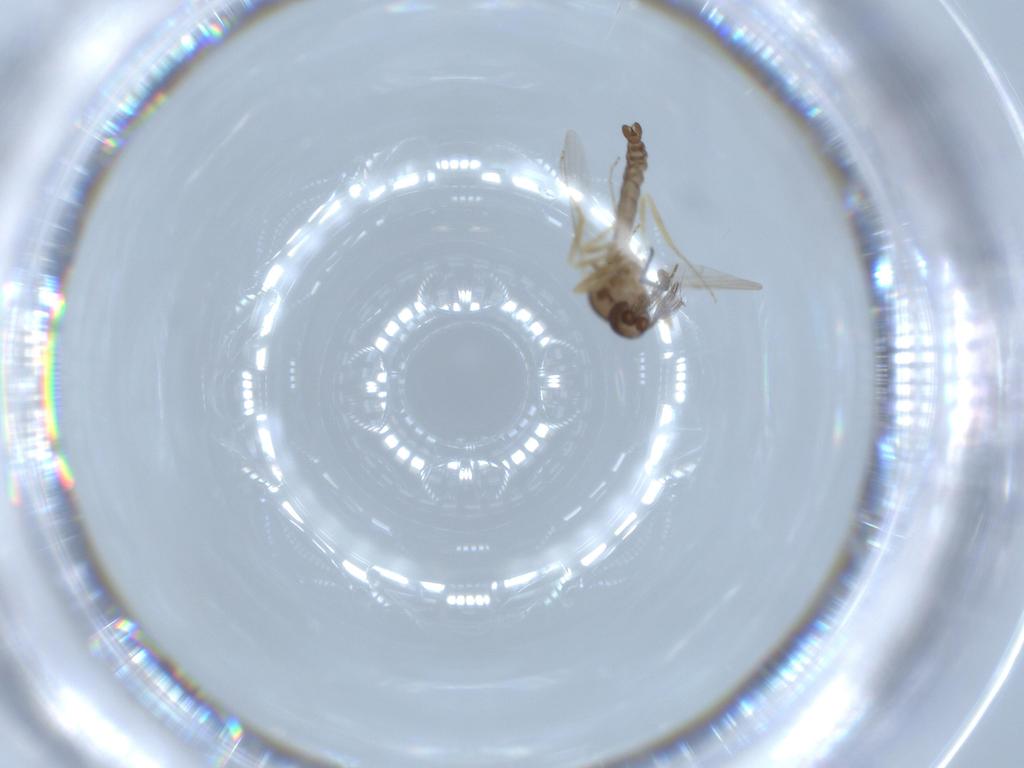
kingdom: Animalia
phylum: Arthropoda
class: Insecta
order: Diptera
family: Ceratopogonidae
